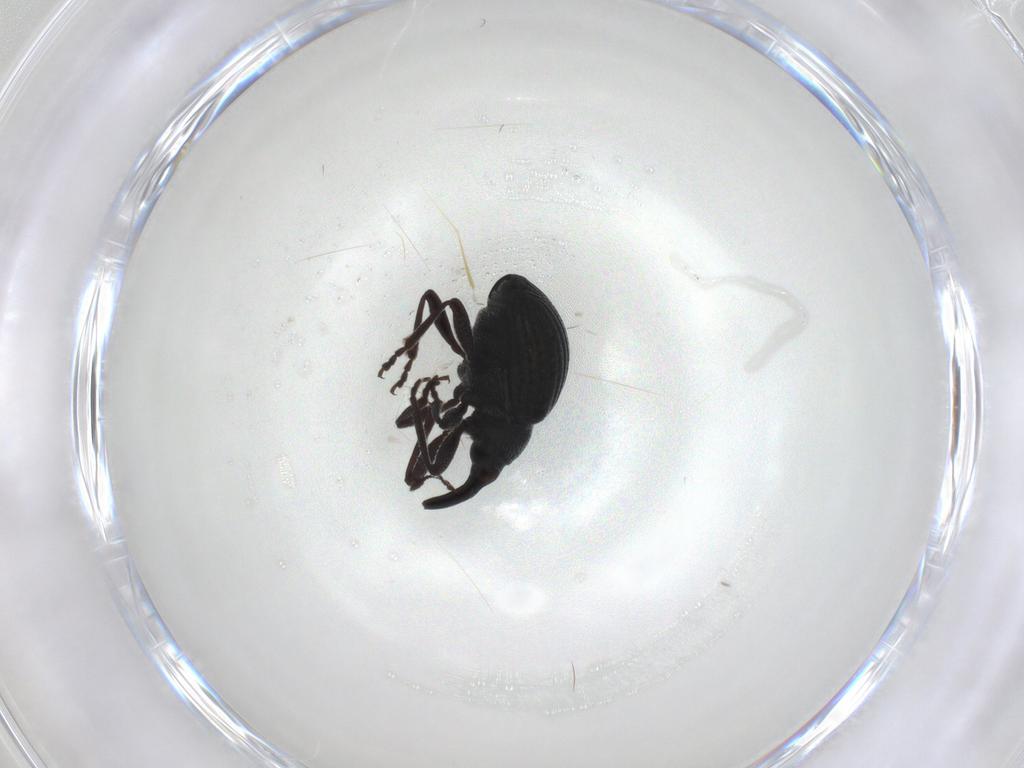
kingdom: Animalia
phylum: Arthropoda
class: Insecta
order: Coleoptera
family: Brentidae
